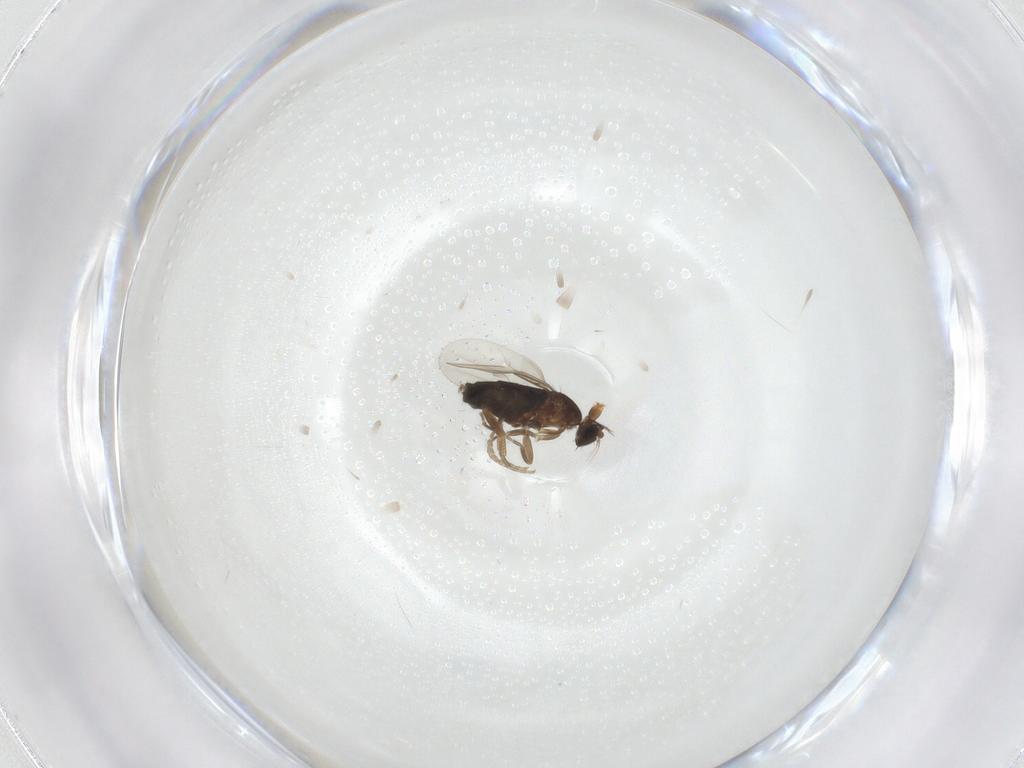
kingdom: Animalia
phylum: Arthropoda
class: Insecta
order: Diptera
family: Phoridae
